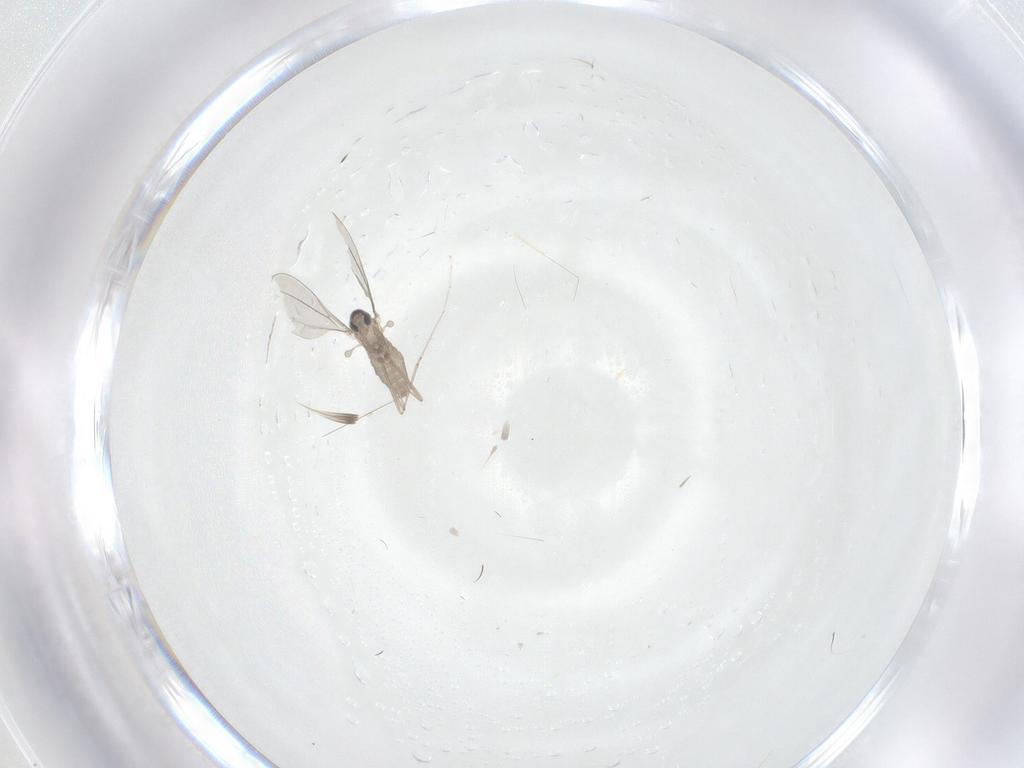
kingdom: Animalia
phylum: Arthropoda
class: Insecta
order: Diptera
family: Cecidomyiidae
